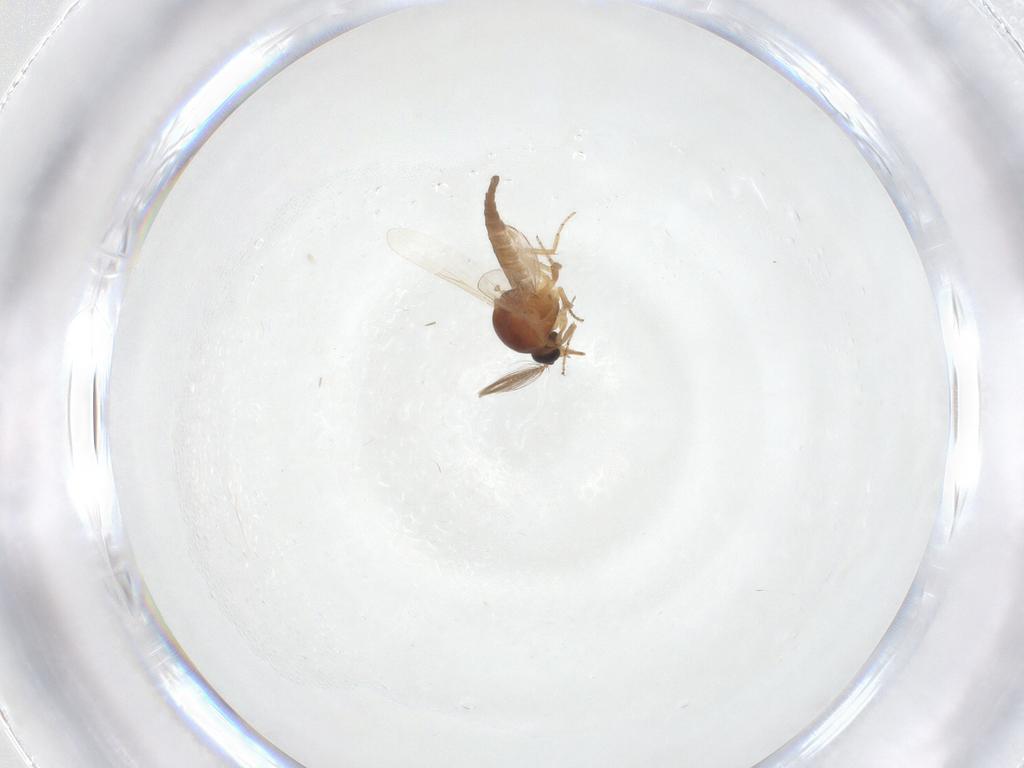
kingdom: Animalia
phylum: Arthropoda
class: Insecta
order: Diptera
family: Ceratopogonidae
